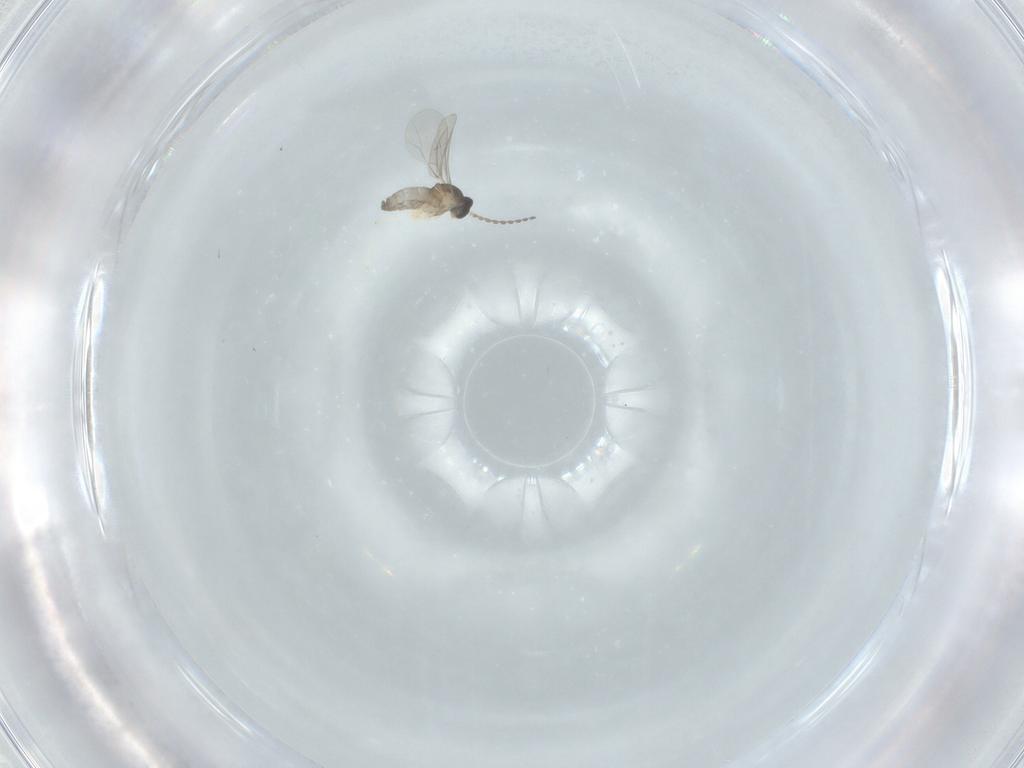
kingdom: Animalia
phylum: Arthropoda
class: Insecta
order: Diptera
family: Cecidomyiidae
